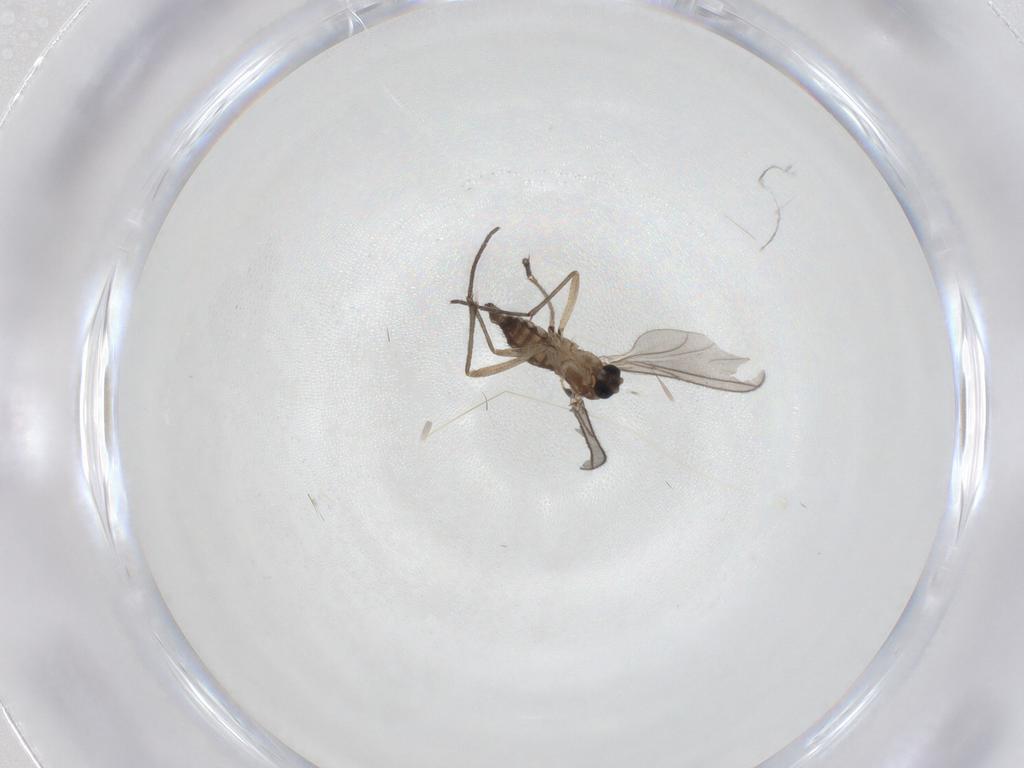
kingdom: Animalia
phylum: Arthropoda
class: Insecta
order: Diptera
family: Sciaridae
